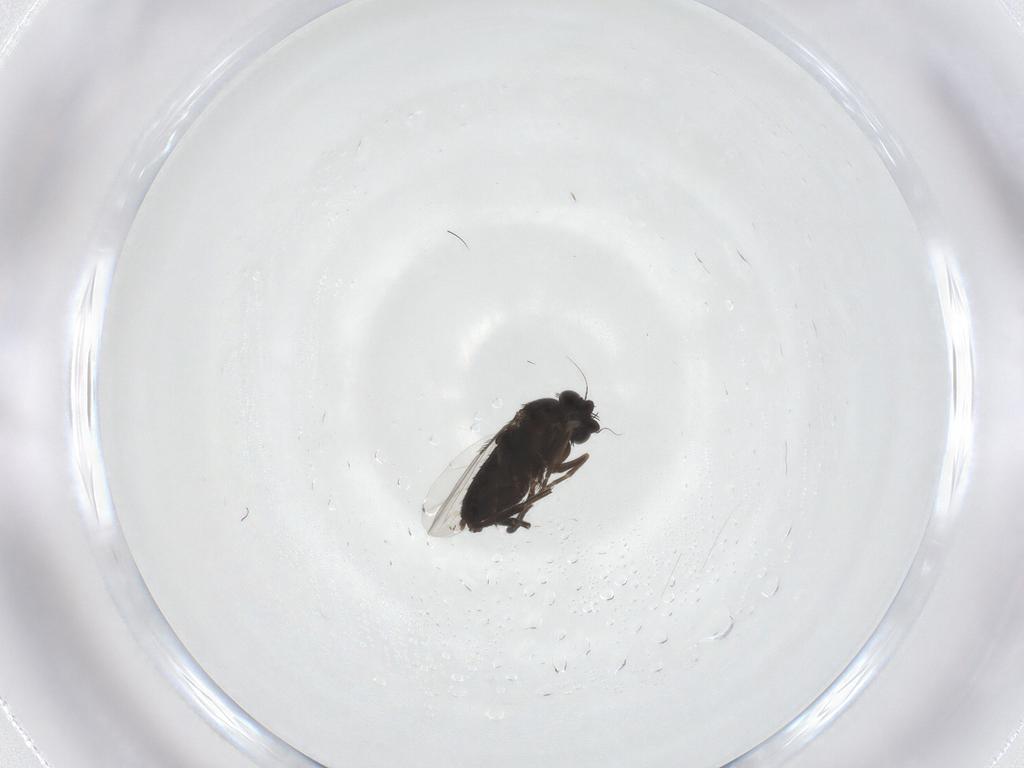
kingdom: Animalia
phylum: Arthropoda
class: Insecta
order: Diptera
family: Phoridae
